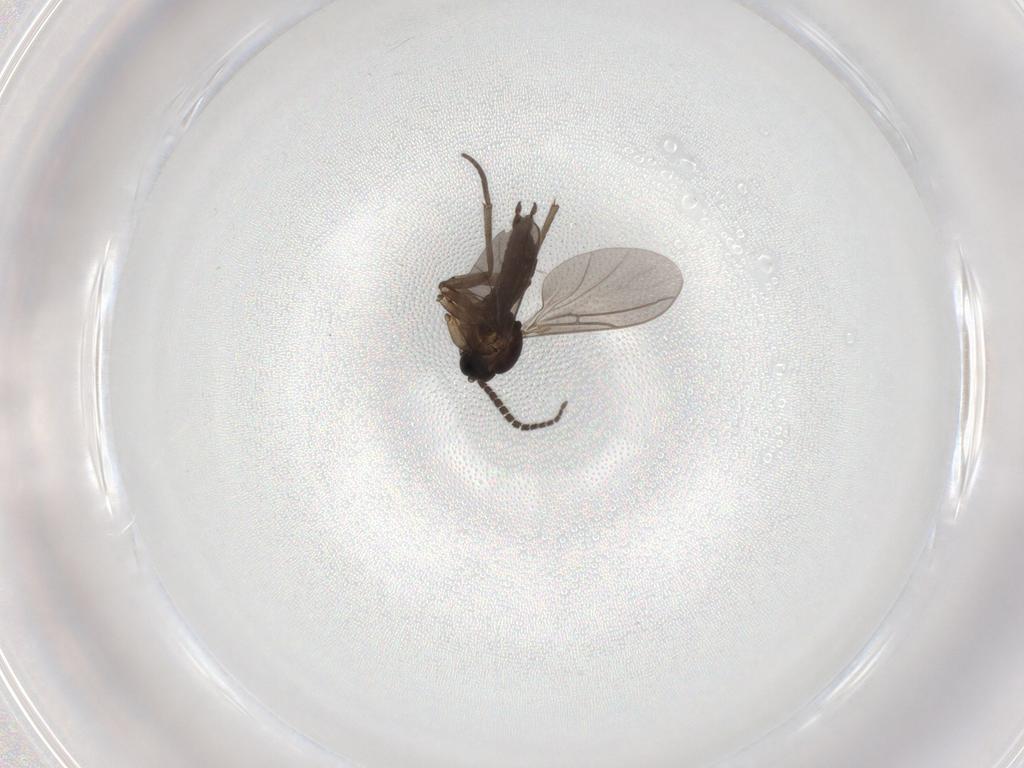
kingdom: Animalia
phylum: Arthropoda
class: Insecta
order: Diptera
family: Sciaridae
